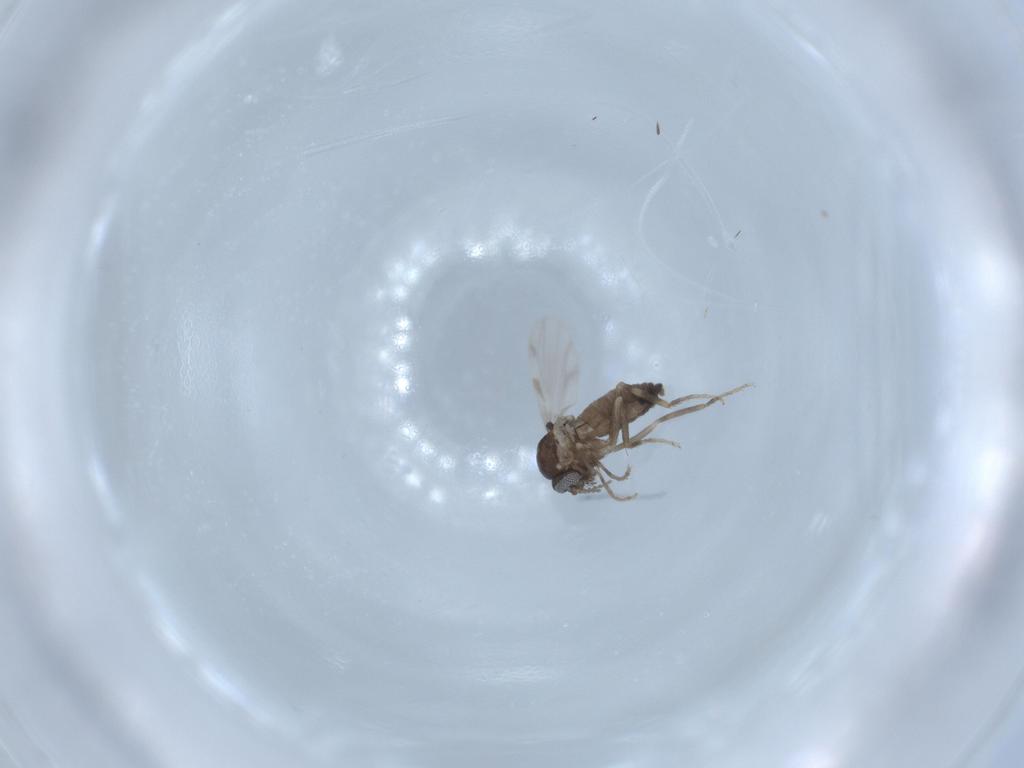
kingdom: Animalia
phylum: Arthropoda
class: Insecta
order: Diptera
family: Ceratopogonidae
